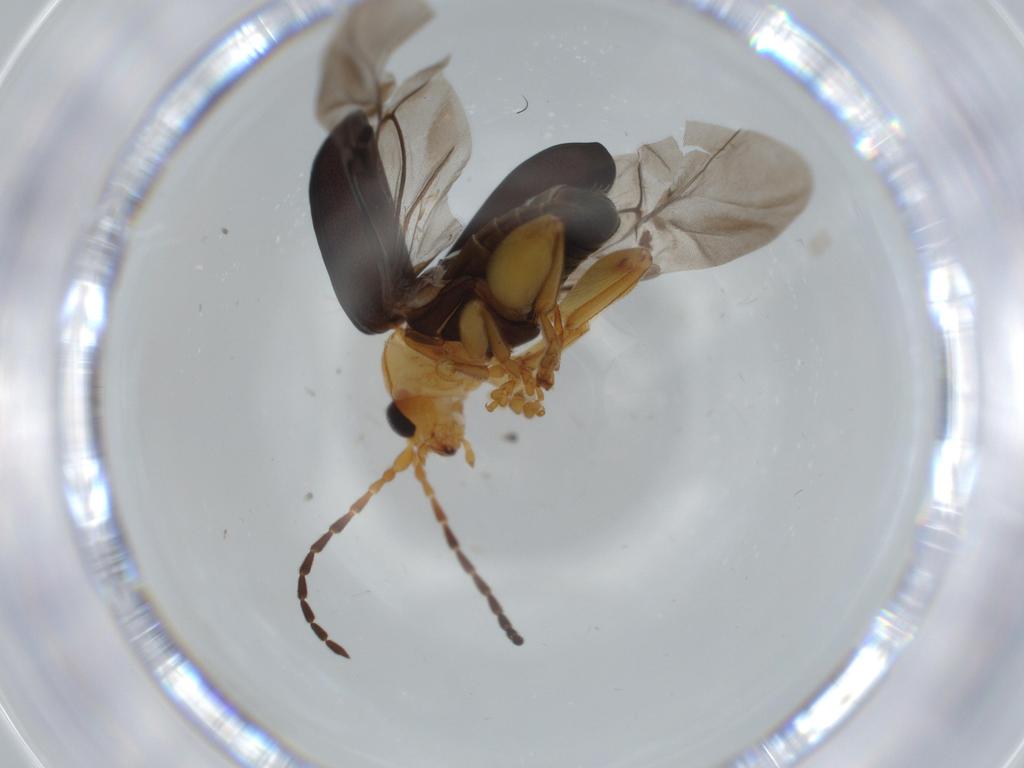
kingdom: Animalia
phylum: Arthropoda
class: Insecta
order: Coleoptera
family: Chrysomelidae
